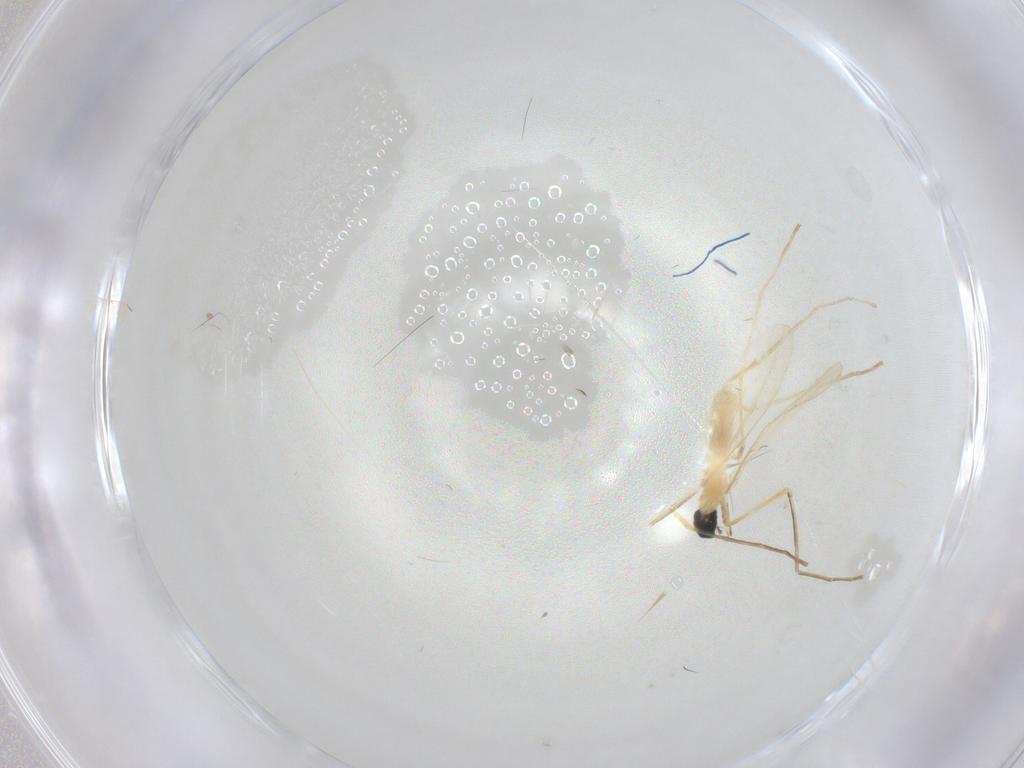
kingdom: Animalia
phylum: Arthropoda
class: Insecta
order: Diptera
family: Cecidomyiidae
